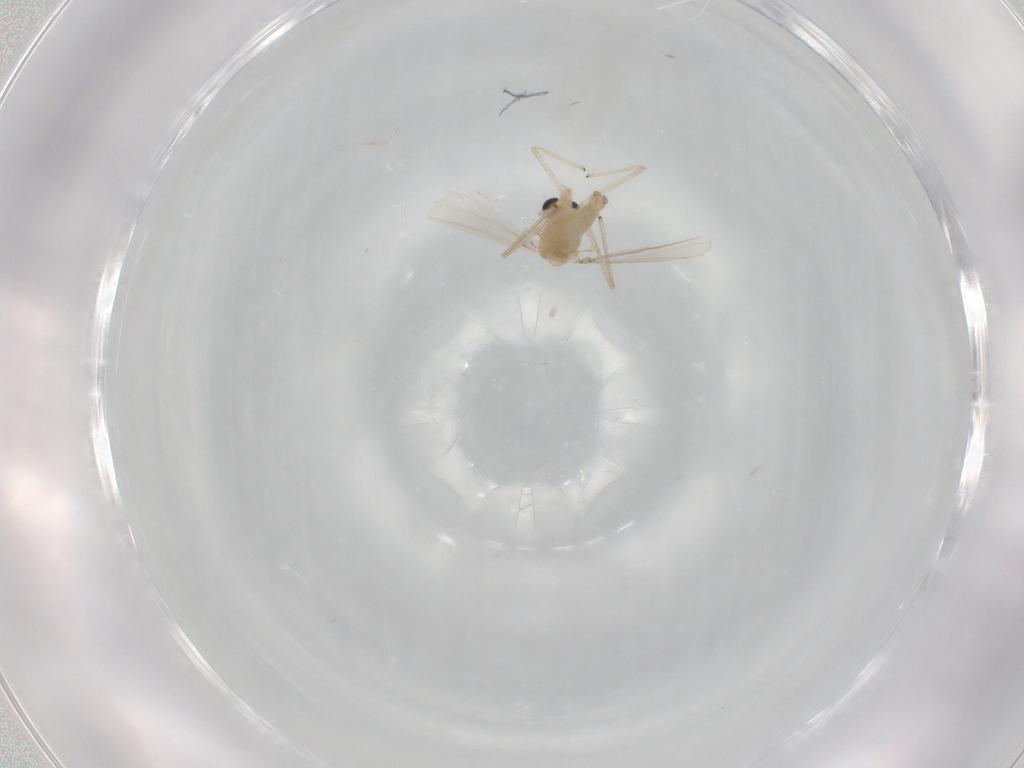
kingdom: Animalia
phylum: Arthropoda
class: Insecta
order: Diptera
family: Chironomidae
